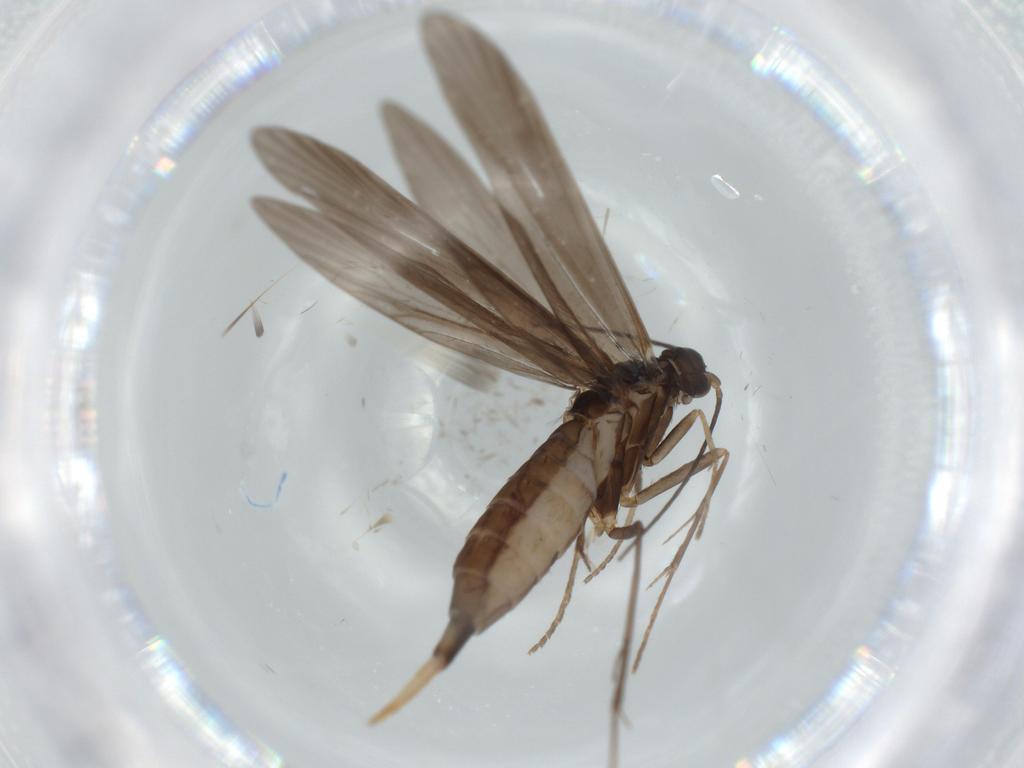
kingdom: Animalia
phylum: Arthropoda
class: Insecta
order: Trichoptera
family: Xiphocentronidae
